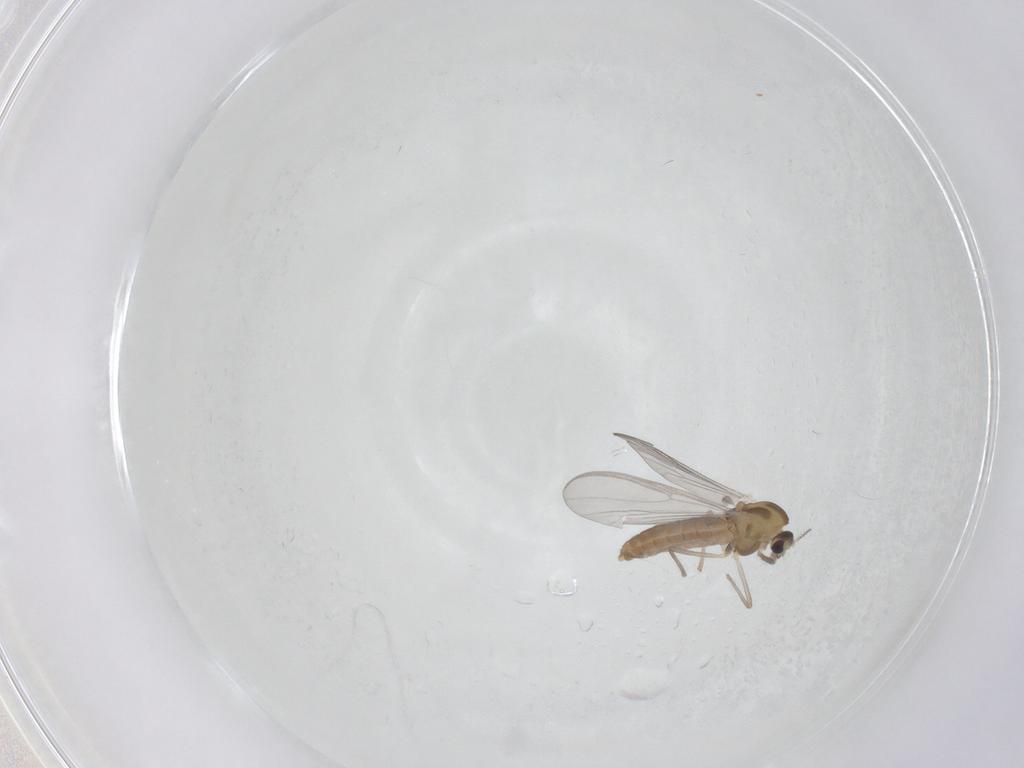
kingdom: Animalia
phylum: Arthropoda
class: Insecta
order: Diptera
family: Chironomidae
